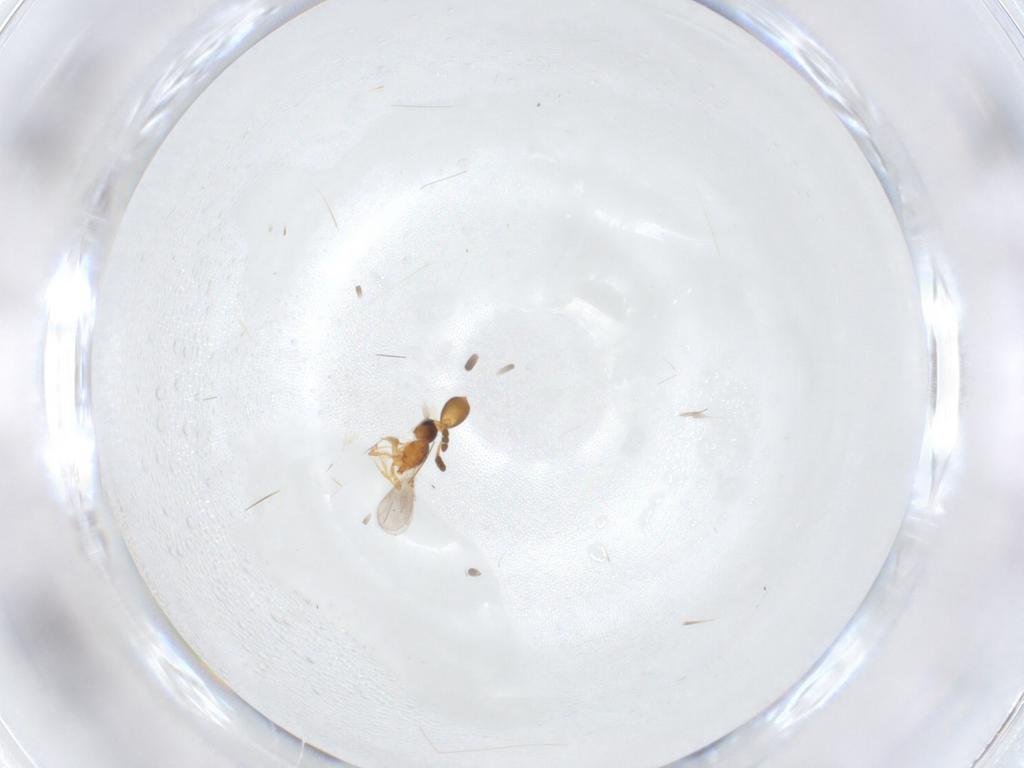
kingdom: Animalia
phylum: Arthropoda
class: Insecta
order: Hymenoptera
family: Diapriidae
